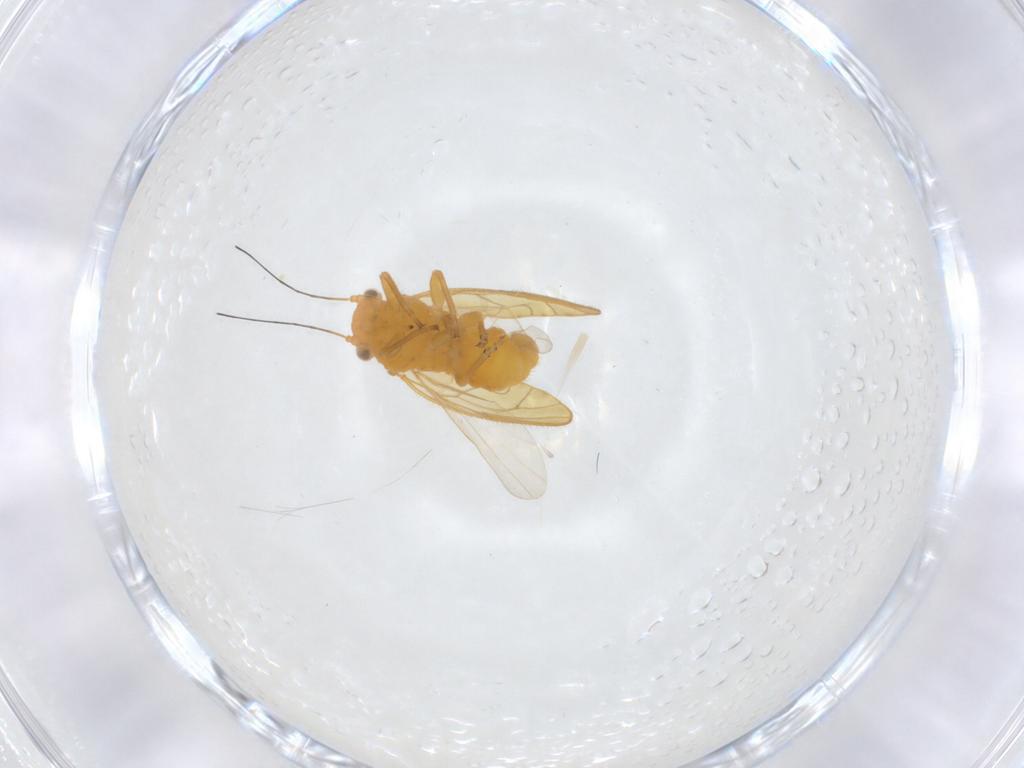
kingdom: Animalia
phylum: Arthropoda
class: Insecta
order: Hemiptera
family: Psyllidae
